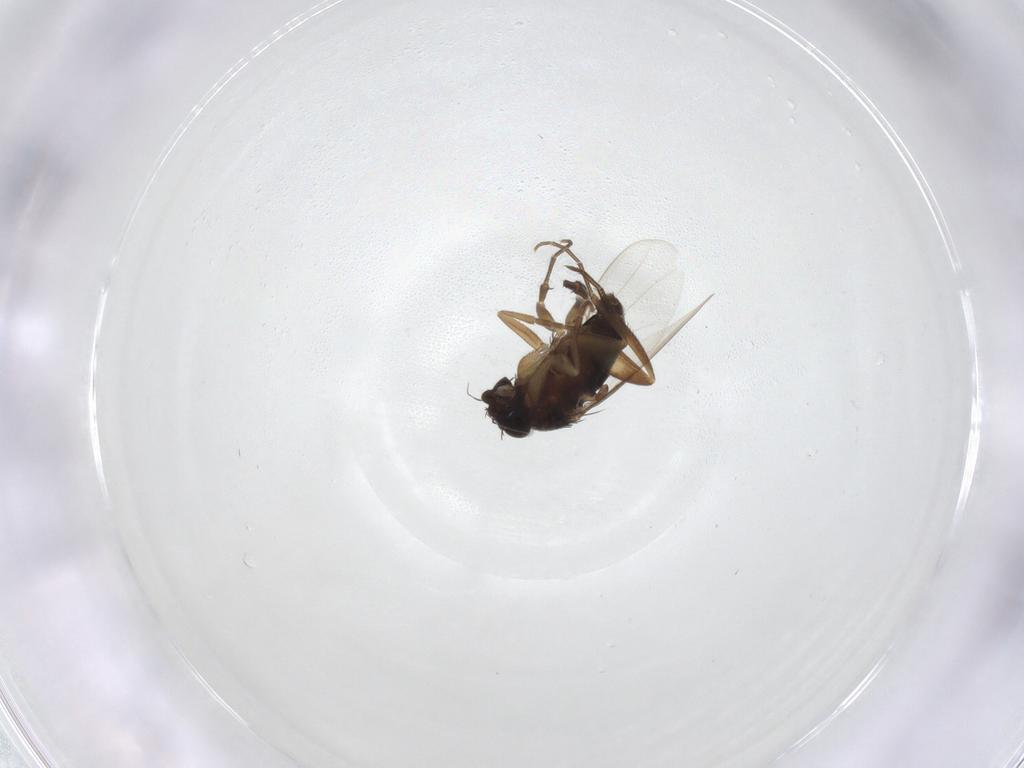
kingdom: Animalia
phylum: Arthropoda
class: Insecta
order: Diptera
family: Phoridae
